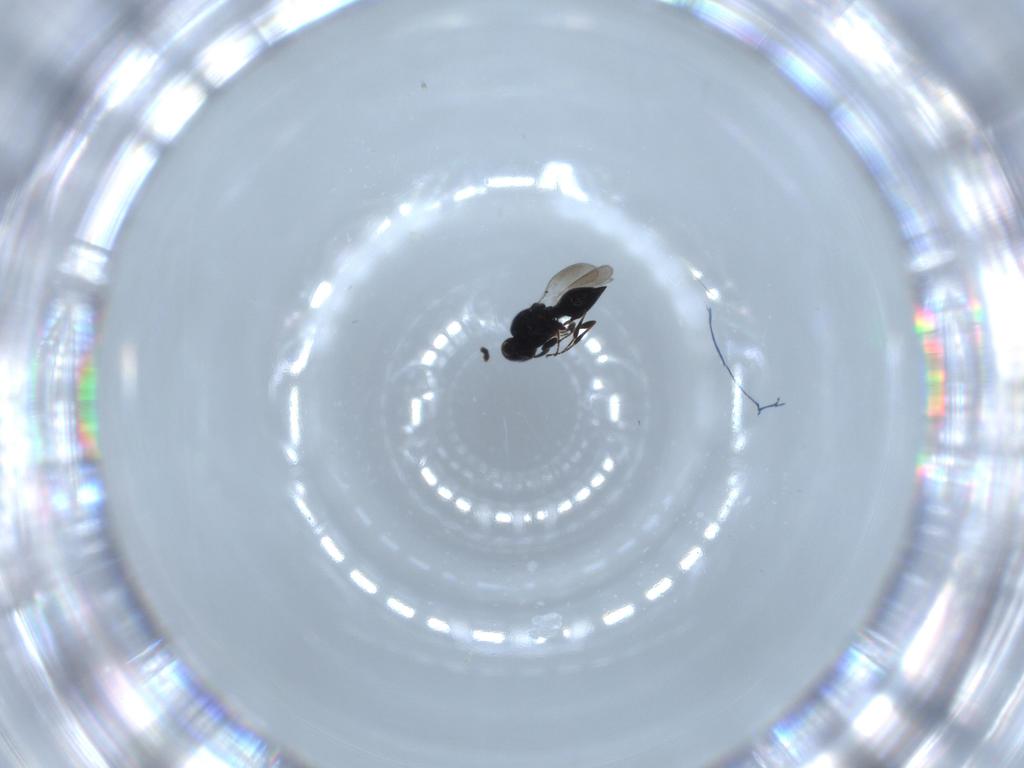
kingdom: Animalia
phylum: Arthropoda
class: Insecta
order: Hymenoptera
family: Platygastridae
